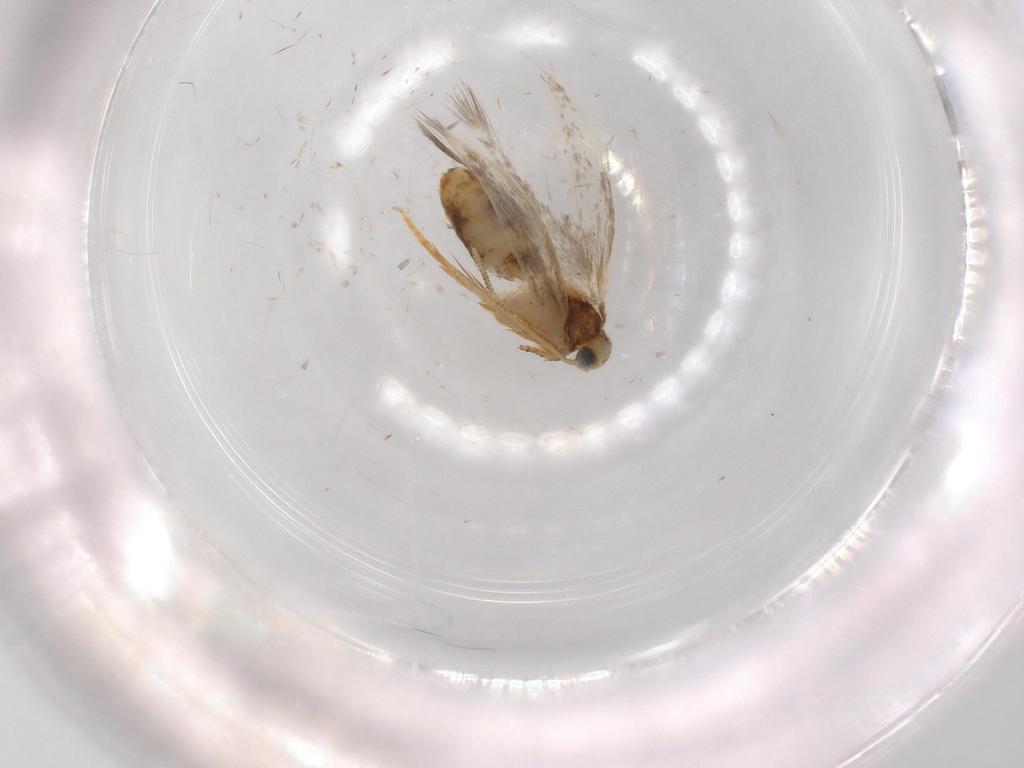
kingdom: Animalia
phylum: Arthropoda
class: Insecta
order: Lepidoptera
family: Nepticulidae
